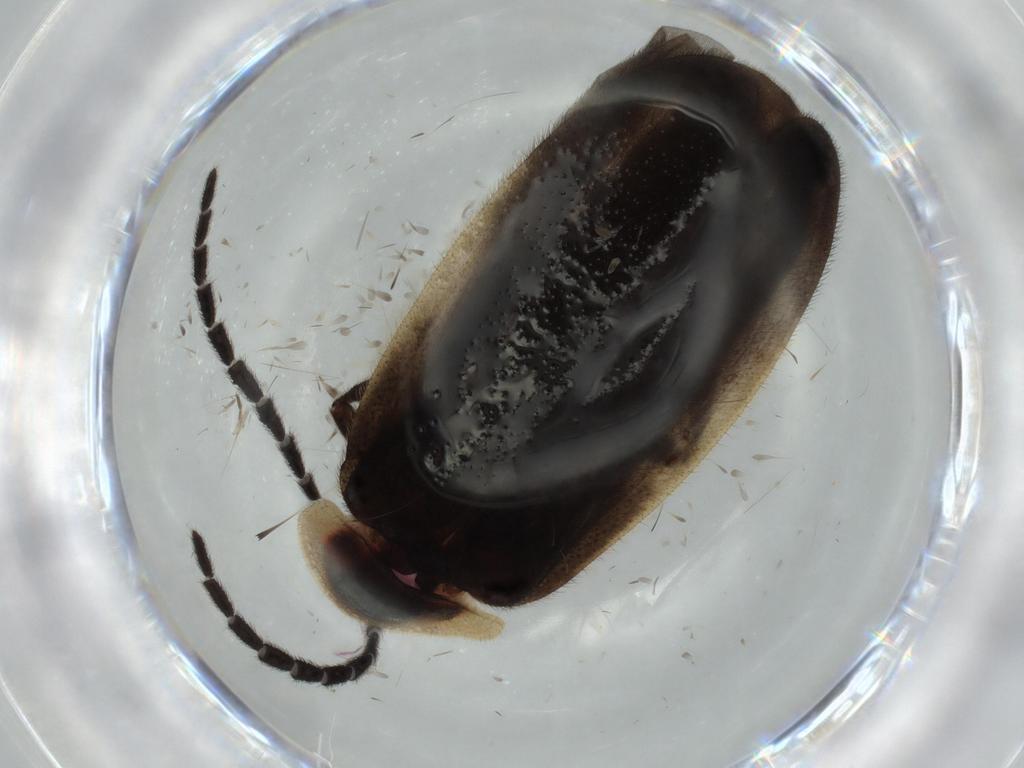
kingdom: Animalia
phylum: Arthropoda
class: Insecta
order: Coleoptera
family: Lampyridae
